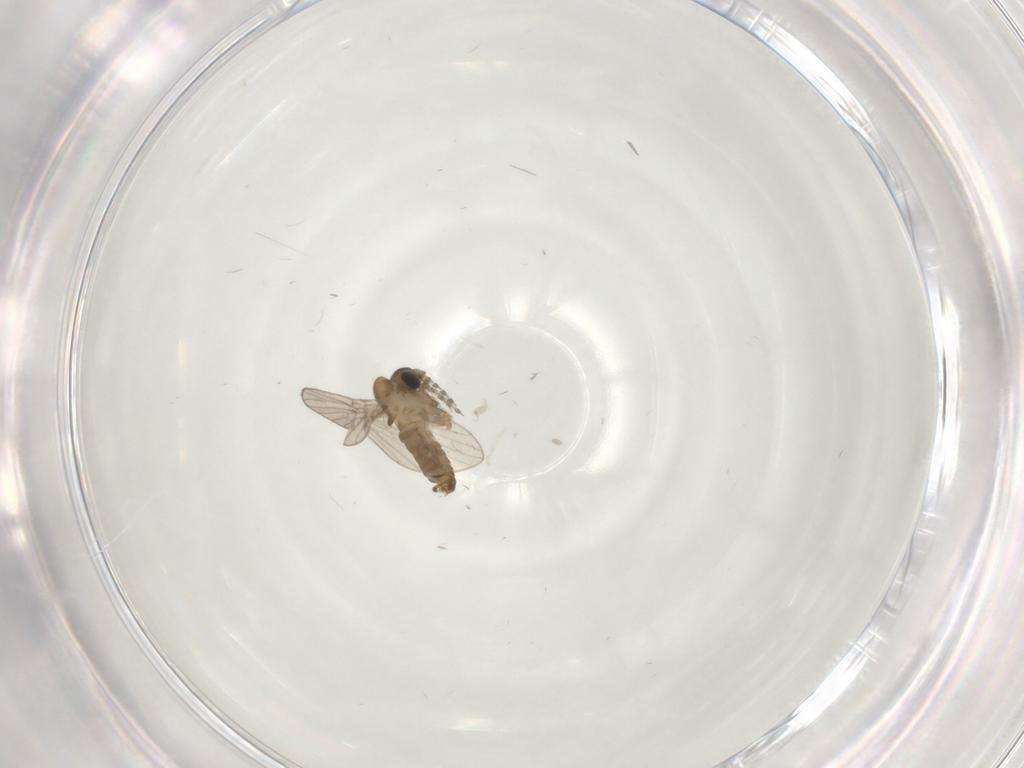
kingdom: Animalia
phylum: Arthropoda
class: Insecta
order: Diptera
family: Psychodidae
